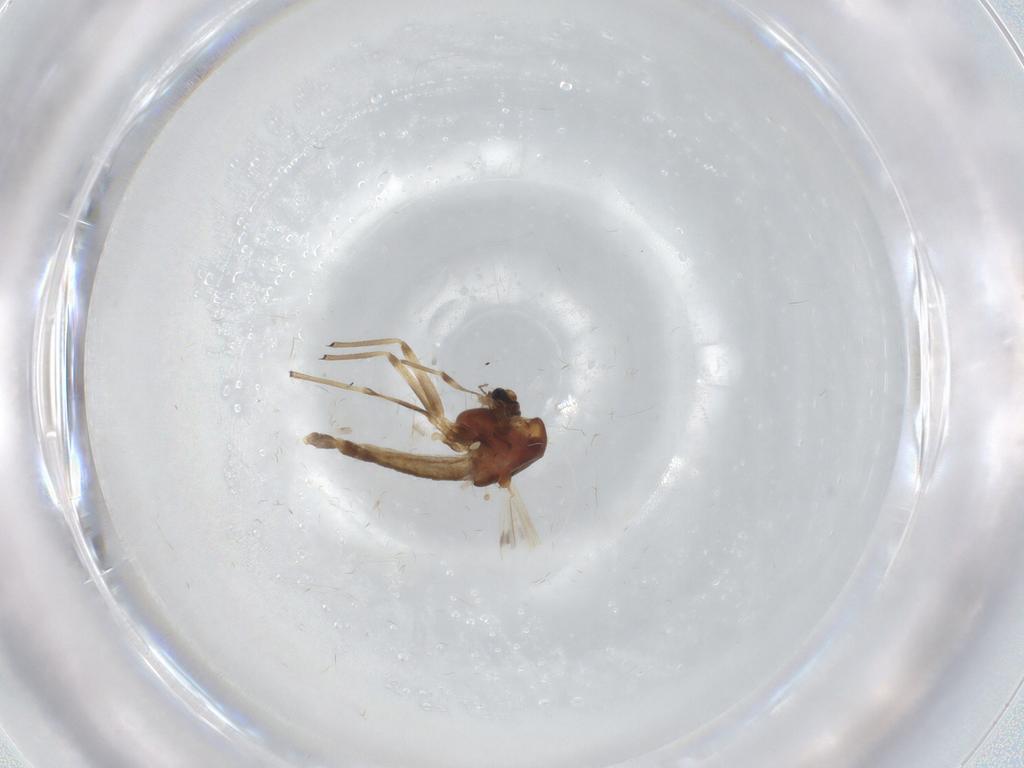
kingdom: Animalia
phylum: Arthropoda
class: Insecta
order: Diptera
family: Chironomidae
